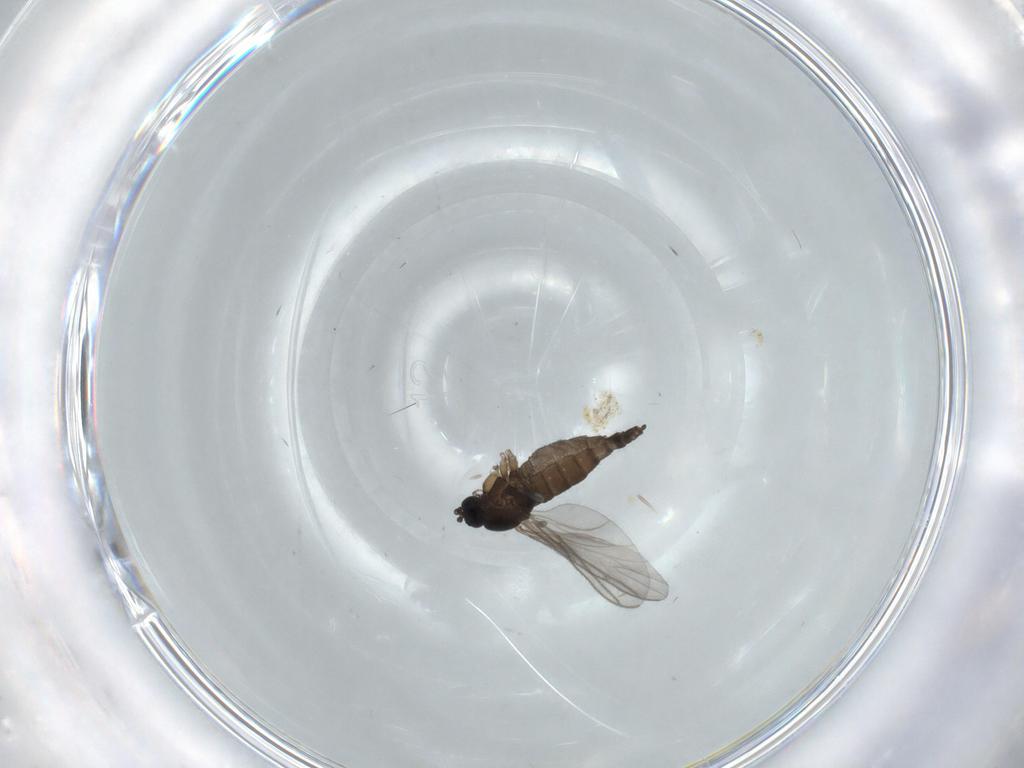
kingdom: Animalia
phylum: Arthropoda
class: Insecta
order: Diptera
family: Sciaridae
